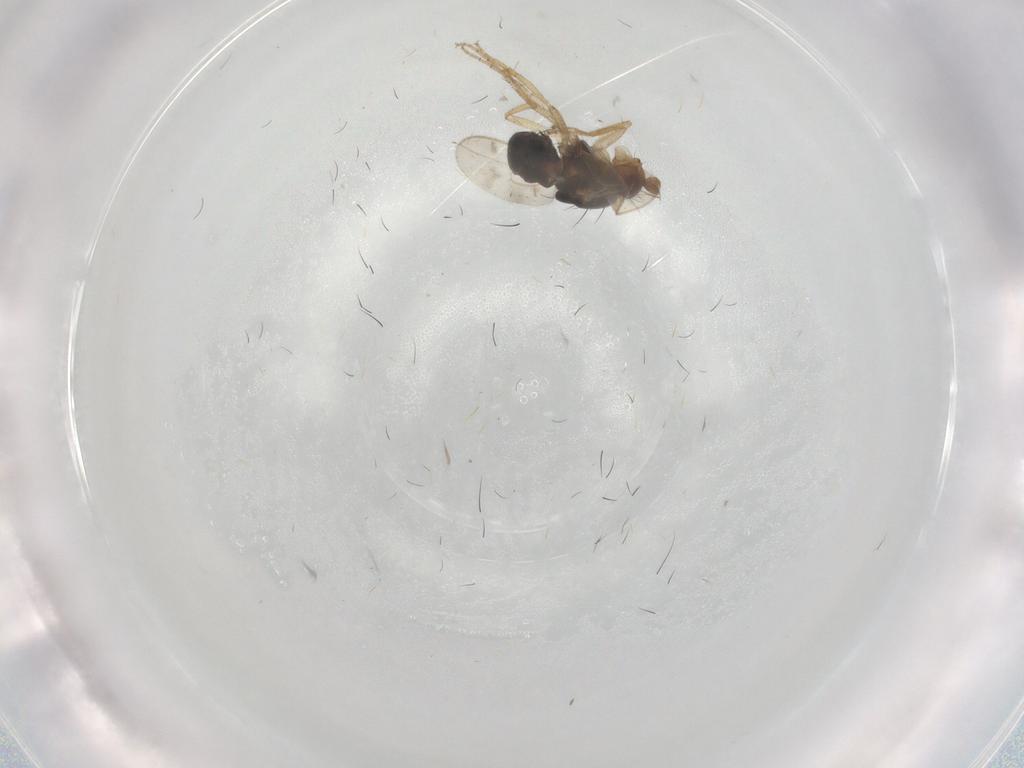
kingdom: Animalia
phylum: Arthropoda
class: Insecta
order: Diptera
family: Sphaeroceridae
